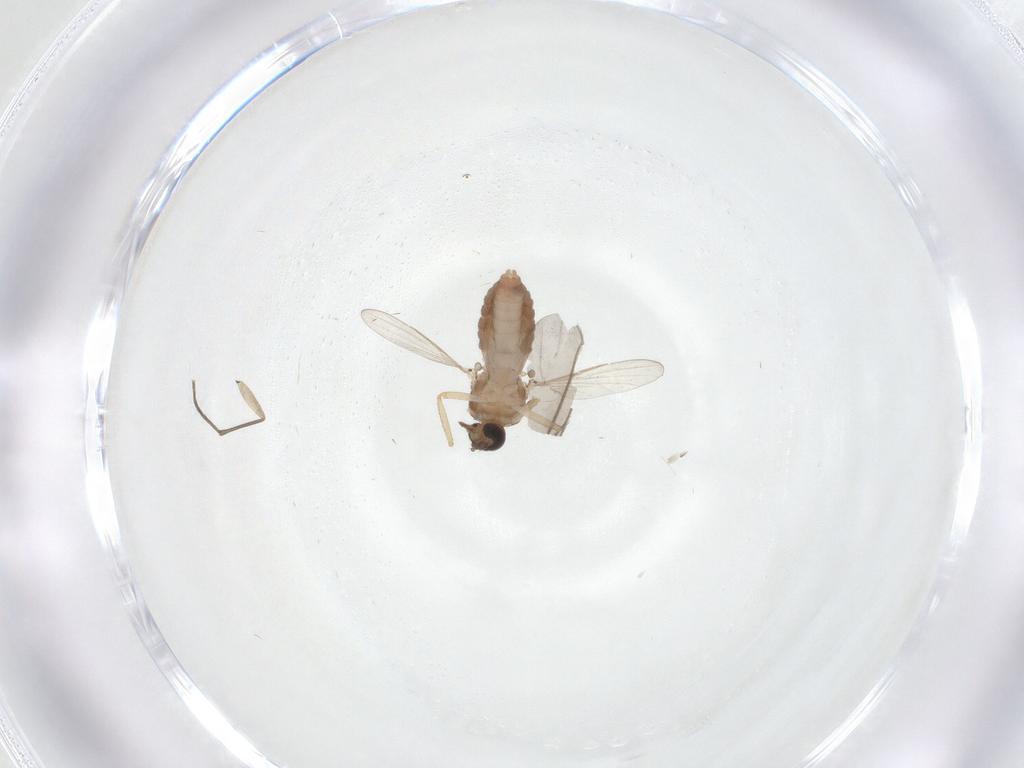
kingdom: Animalia
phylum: Arthropoda
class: Insecta
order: Diptera
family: Ceratopogonidae
